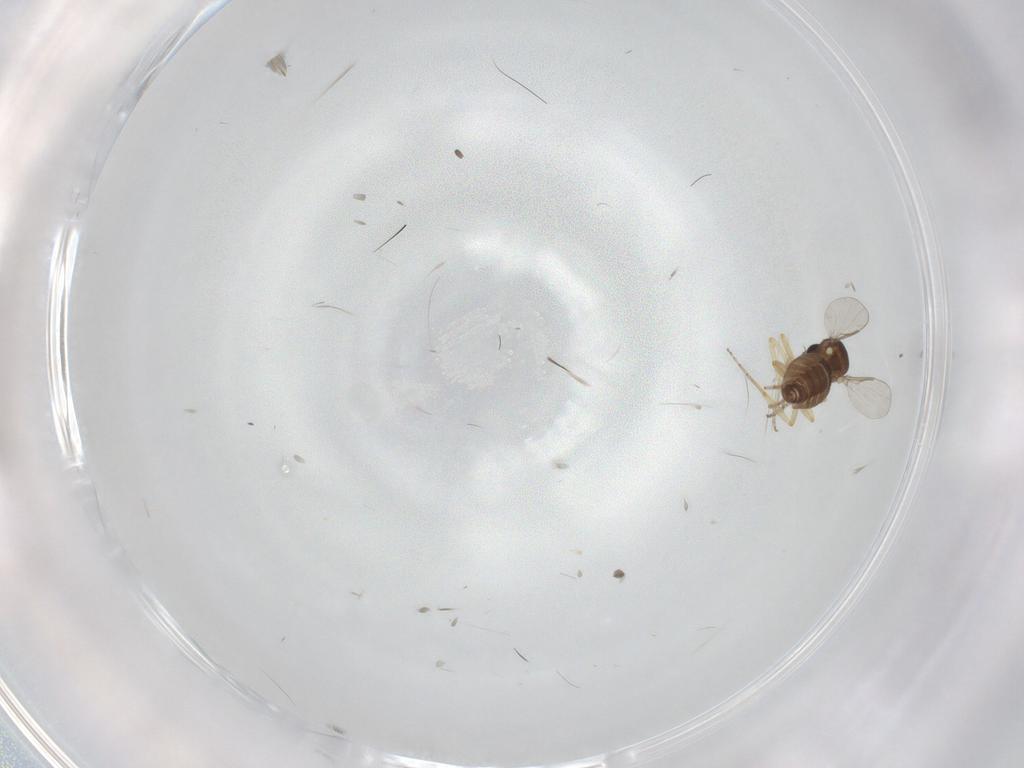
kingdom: Animalia
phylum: Arthropoda
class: Insecta
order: Diptera
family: Ceratopogonidae
